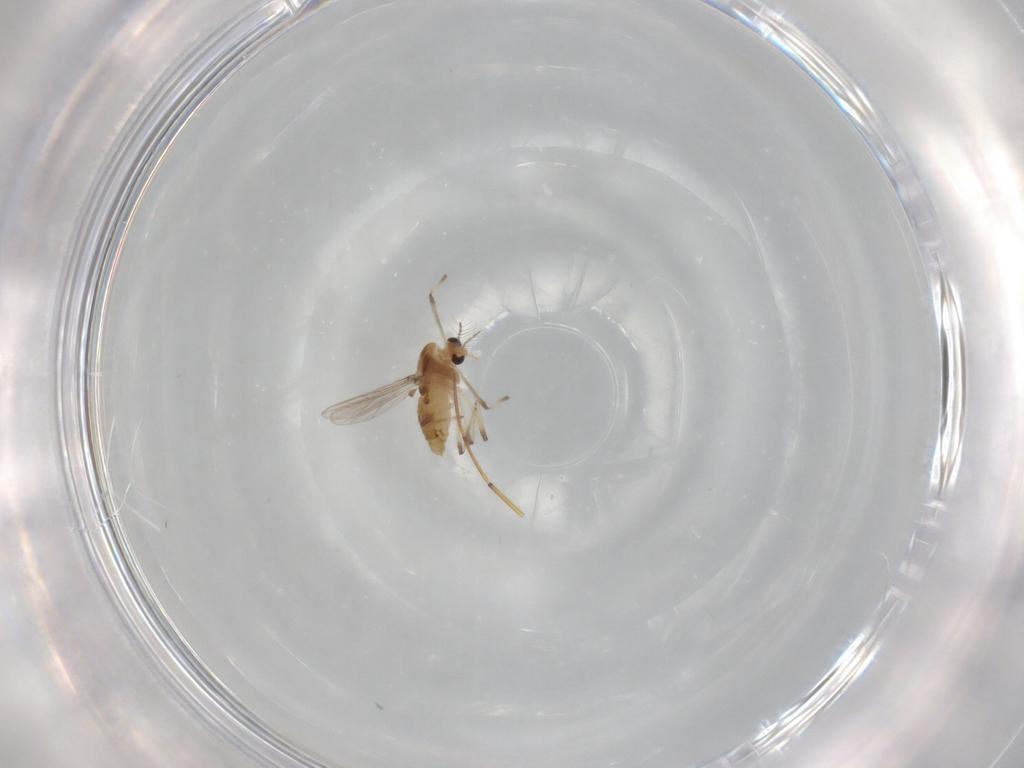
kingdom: Animalia
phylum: Arthropoda
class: Insecta
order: Diptera
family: Chironomidae
